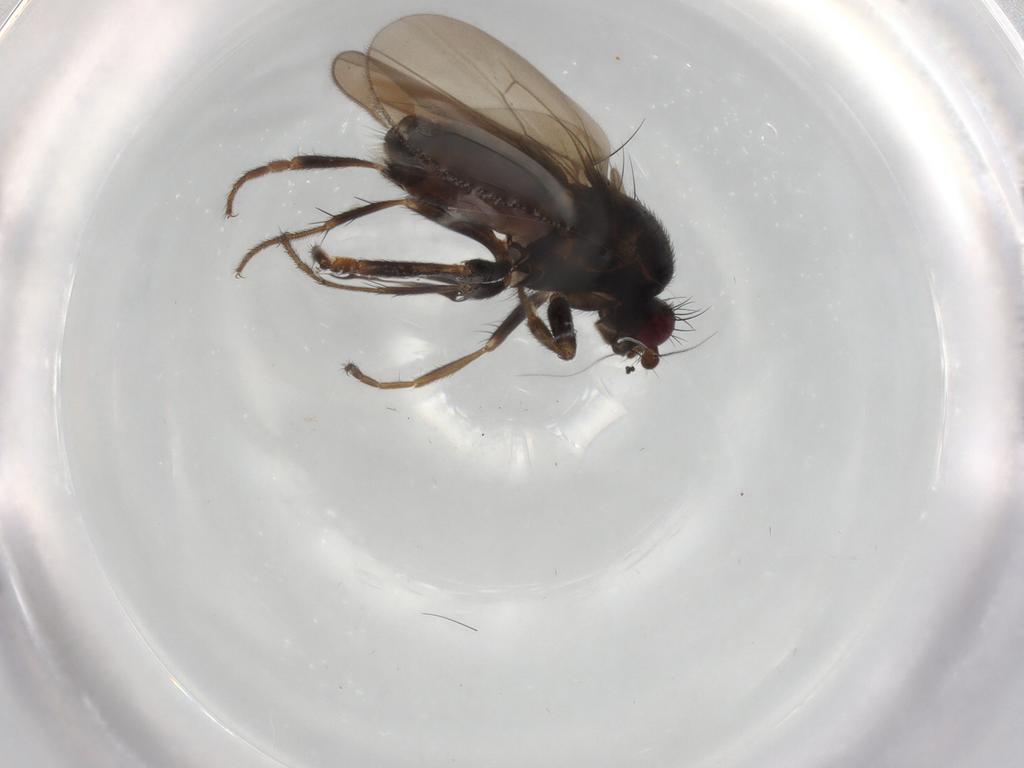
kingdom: Animalia
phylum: Arthropoda
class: Insecta
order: Diptera
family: Sphaeroceridae
